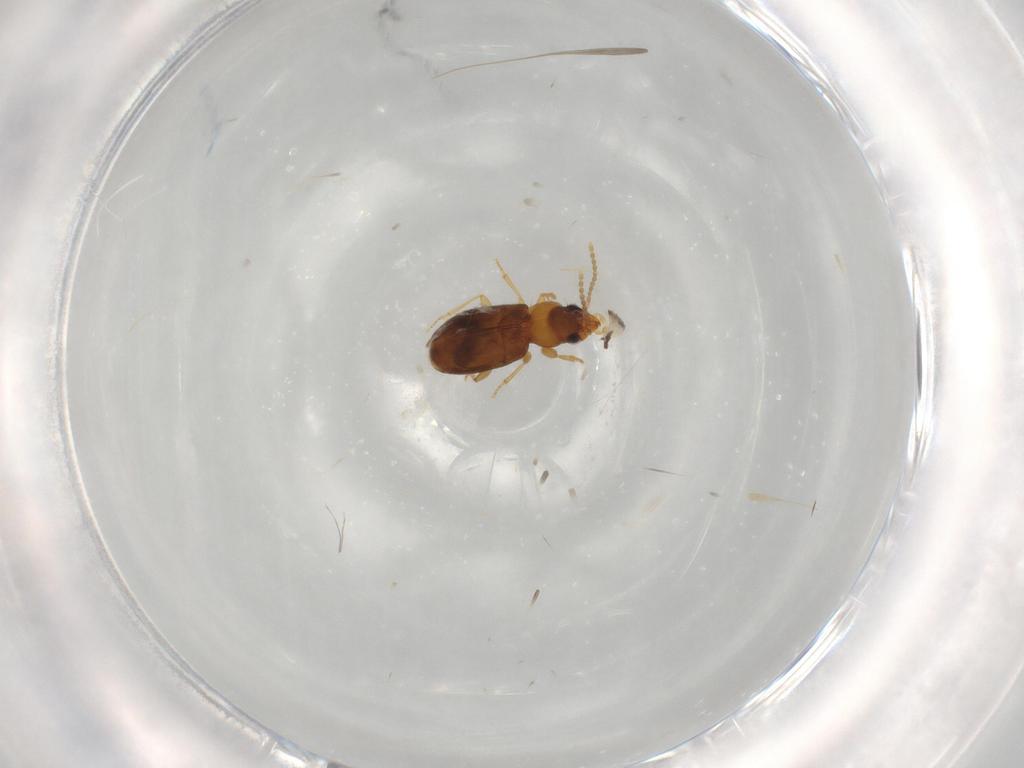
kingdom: Animalia
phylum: Arthropoda
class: Insecta
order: Coleoptera
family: Carabidae
